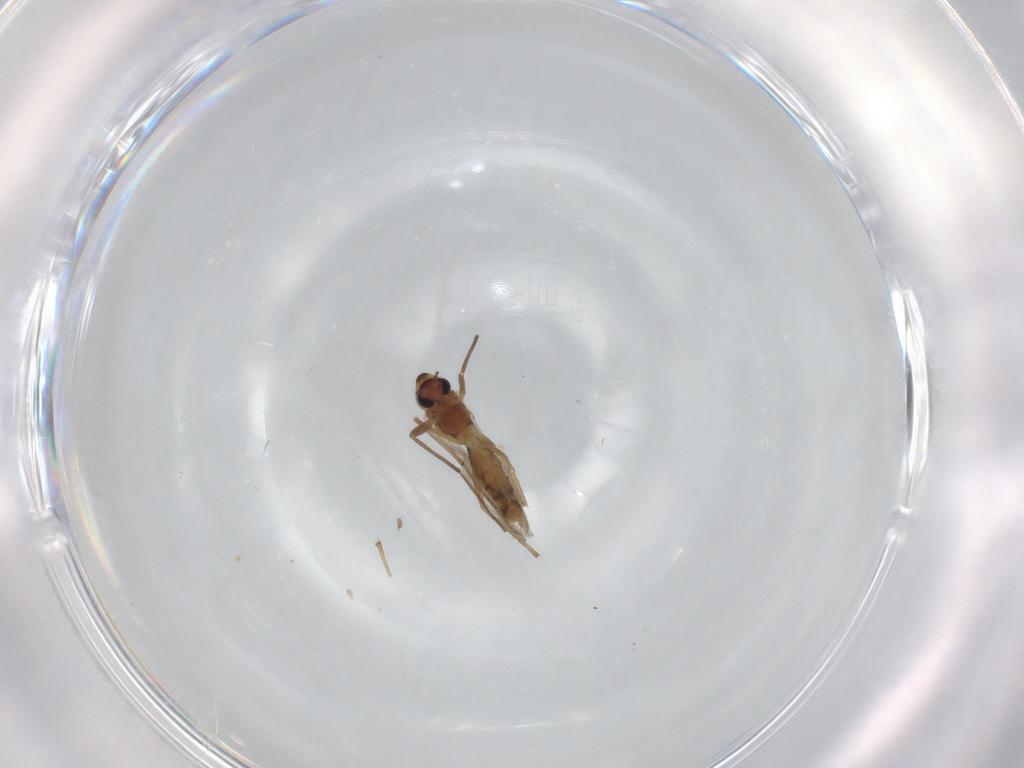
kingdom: Animalia
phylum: Arthropoda
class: Insecta
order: Diptera
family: Chironomidae
